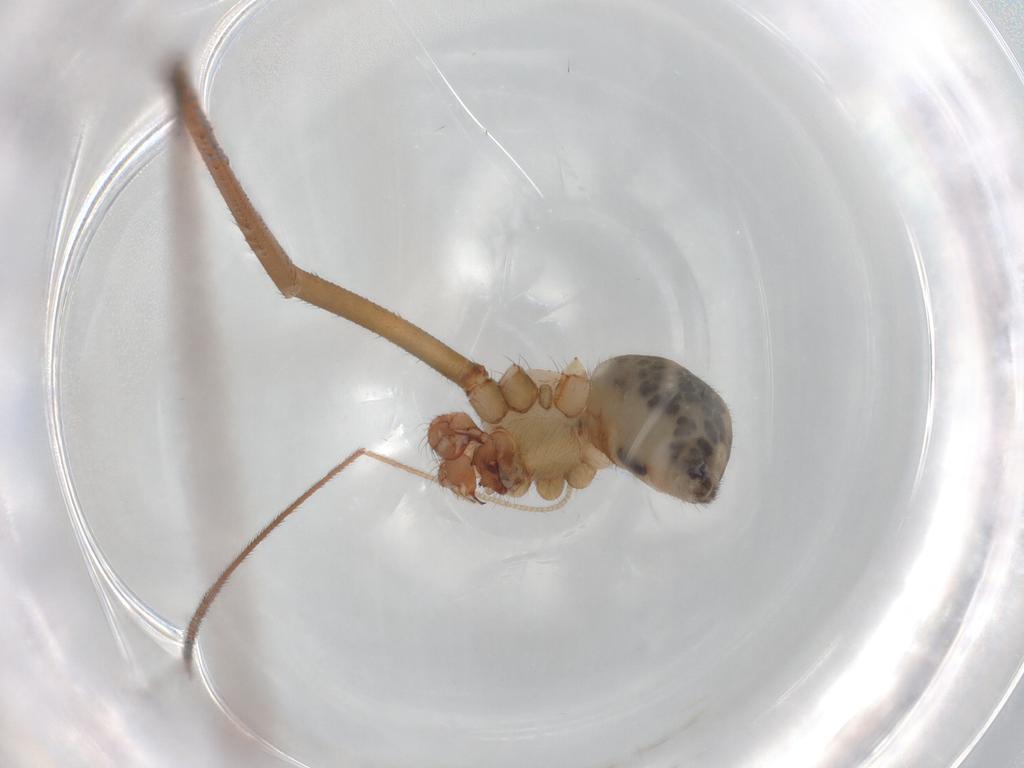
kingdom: Animalia
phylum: Arthropoda
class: Arachnida
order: Araneae
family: Pholcidae
